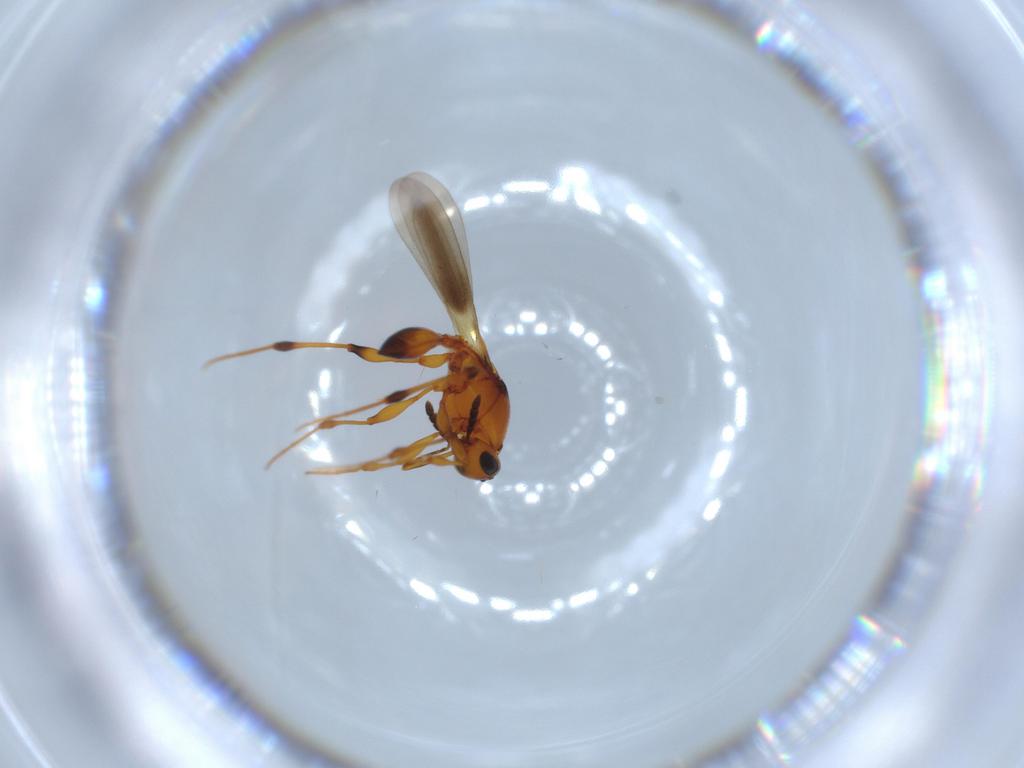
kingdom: Animalia
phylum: Arthropoda
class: Insecta
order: Hymenoptera
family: Platygastridae
